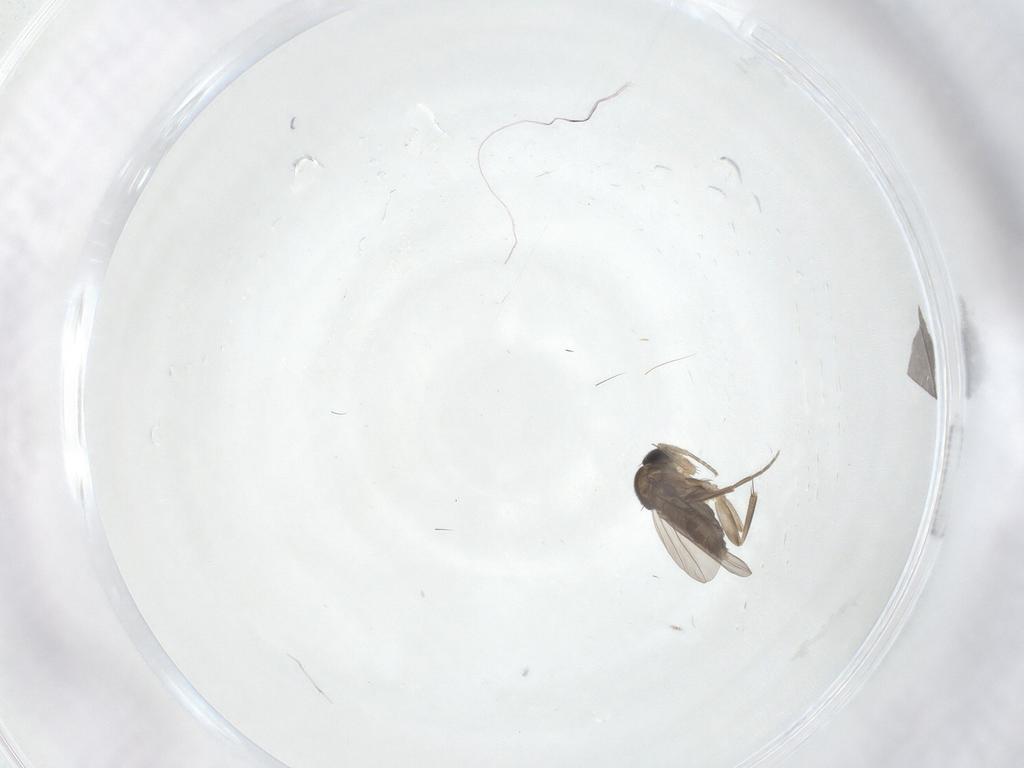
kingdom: Animalia
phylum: Arthropoda
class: Insecta
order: Diptera
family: Phoridae
